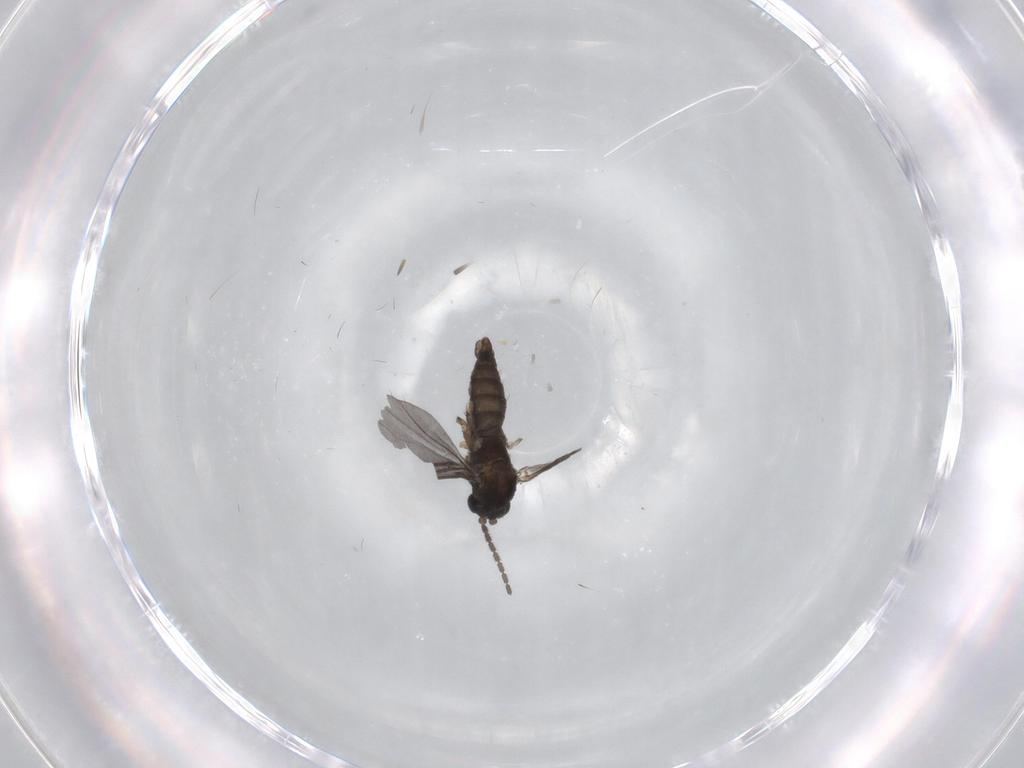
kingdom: Animalia
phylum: Arthropoda
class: Insecta
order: Diptera
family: Sciaridae
